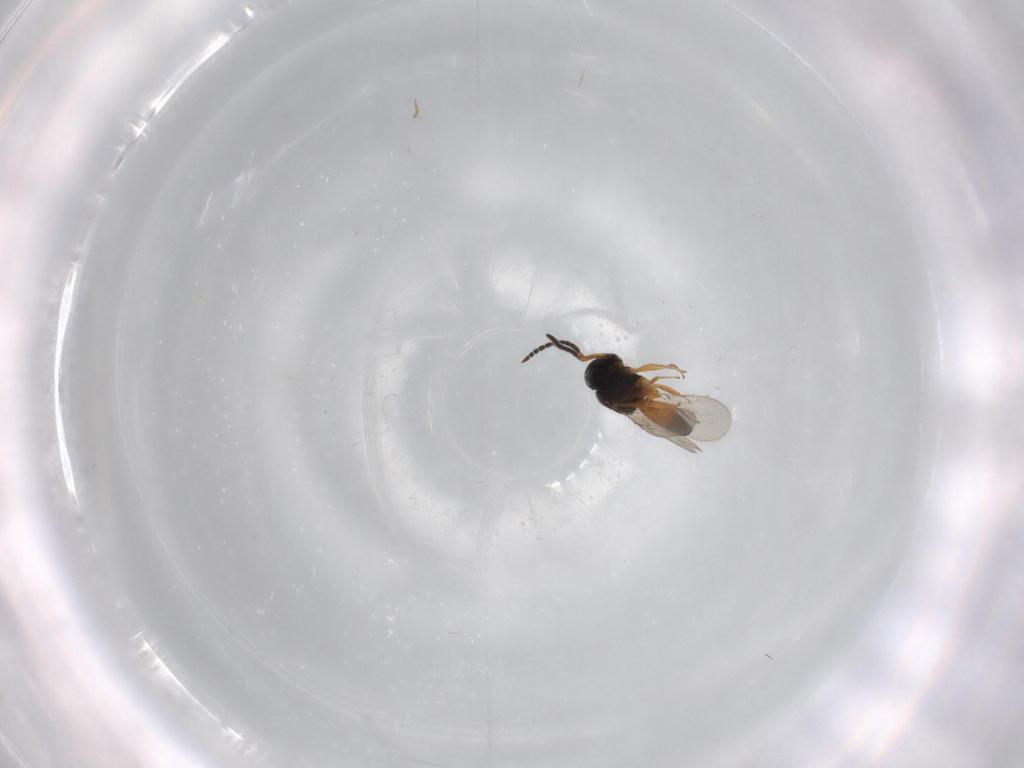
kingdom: Animalia
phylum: Arthropoda
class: Insecta
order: Hymenoptera
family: Scelionidae
